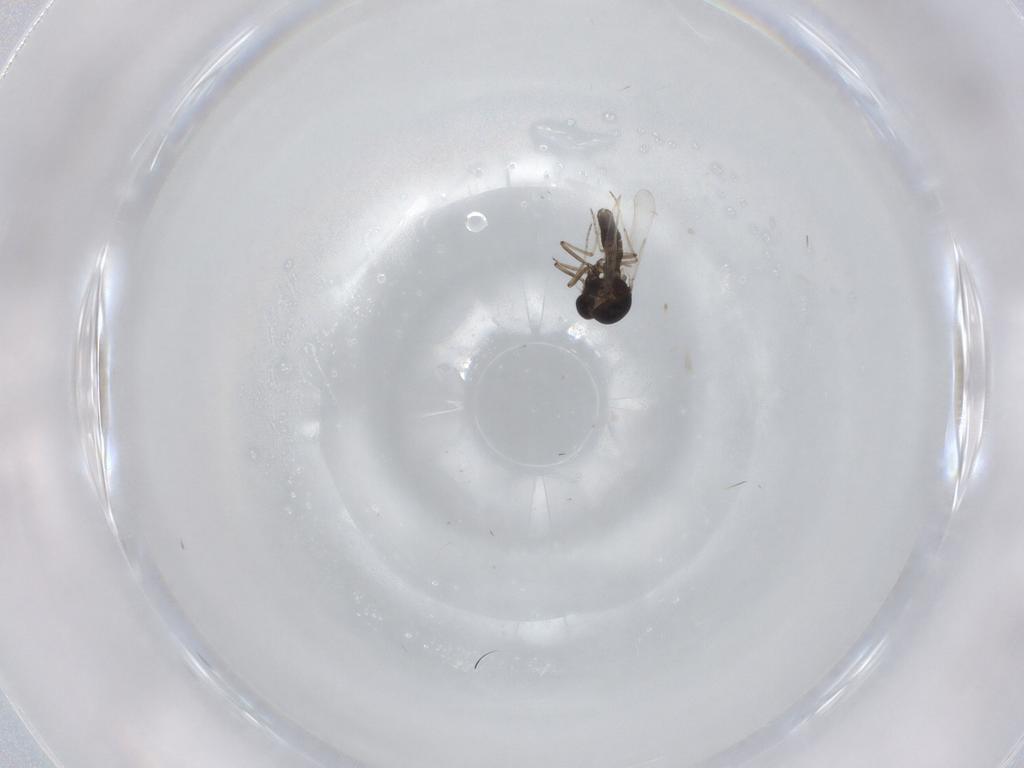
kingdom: Animalia
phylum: Arthropoda
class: Insecta
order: Diptera
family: Ceratopogonidae
